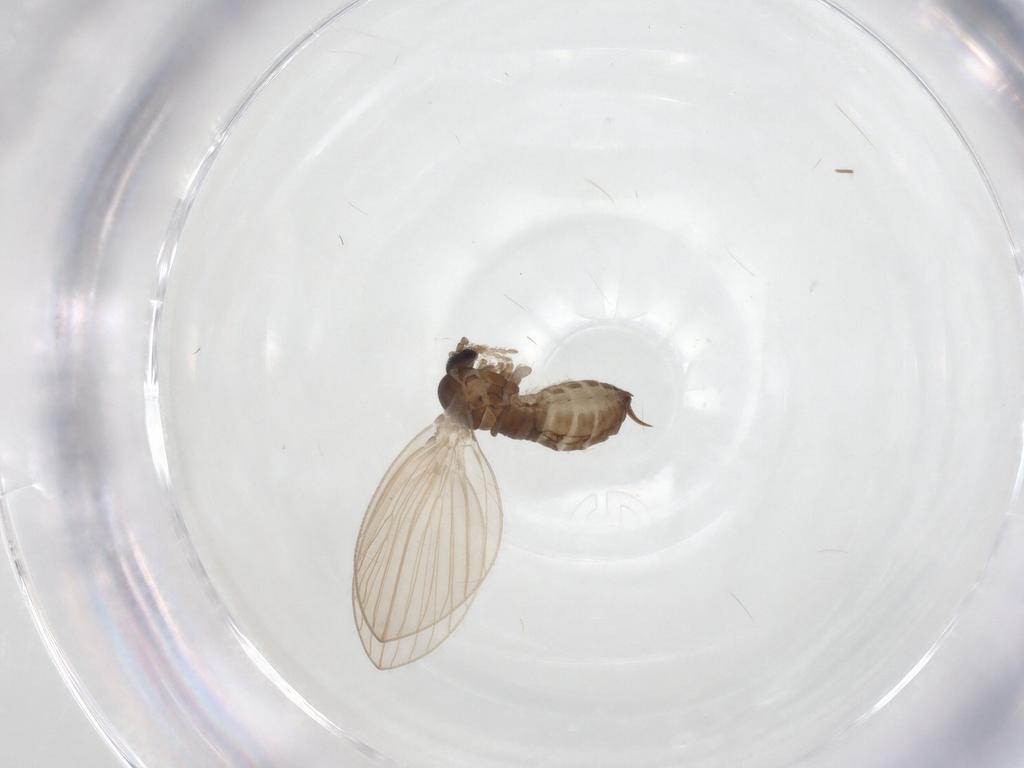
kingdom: Animalia
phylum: Arthropoda
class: Insecta
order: Diptera
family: Psychodidae
